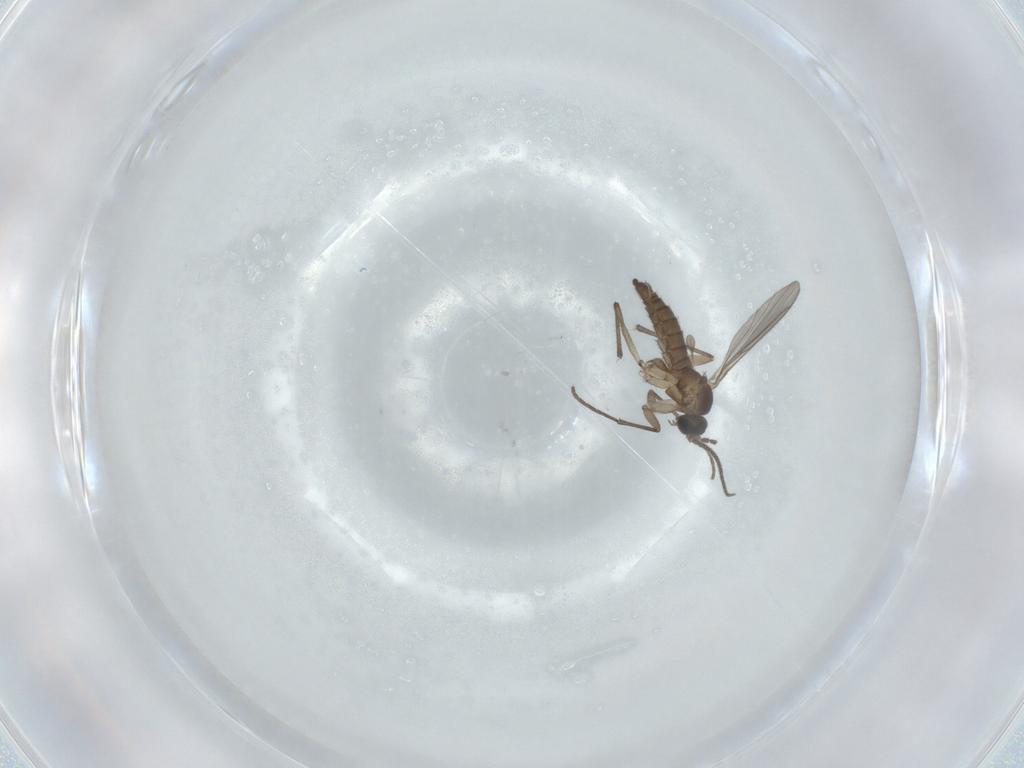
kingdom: Animalia
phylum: Arthropoda
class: Insecta
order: Diptera
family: Sciaridae
